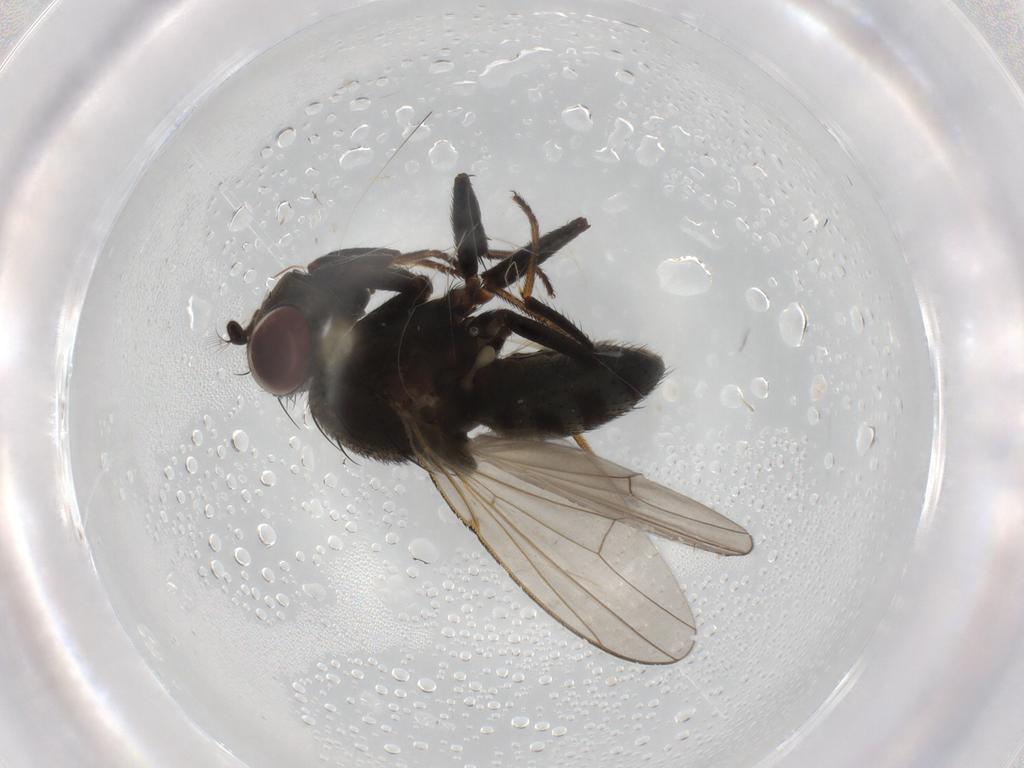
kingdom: Animalia
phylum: Arthropoda
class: Insecta
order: Diptera
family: Ephydridae
